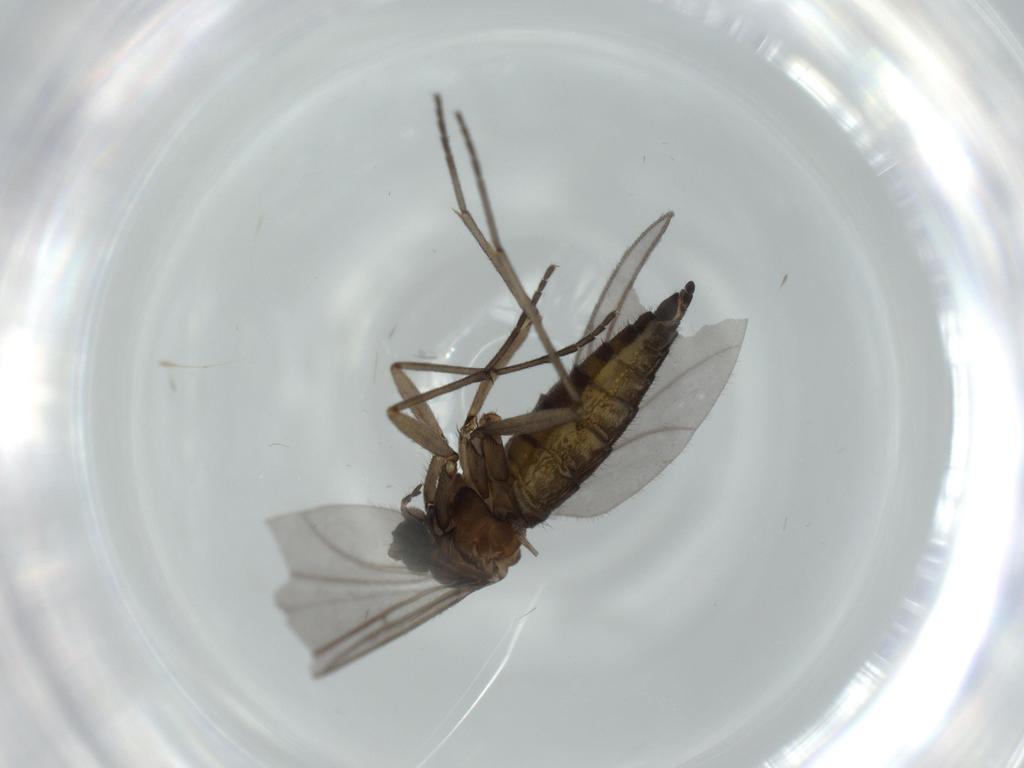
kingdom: Animalia
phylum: Arthropoda
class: Insecta
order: Diptera
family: Sciaridae
